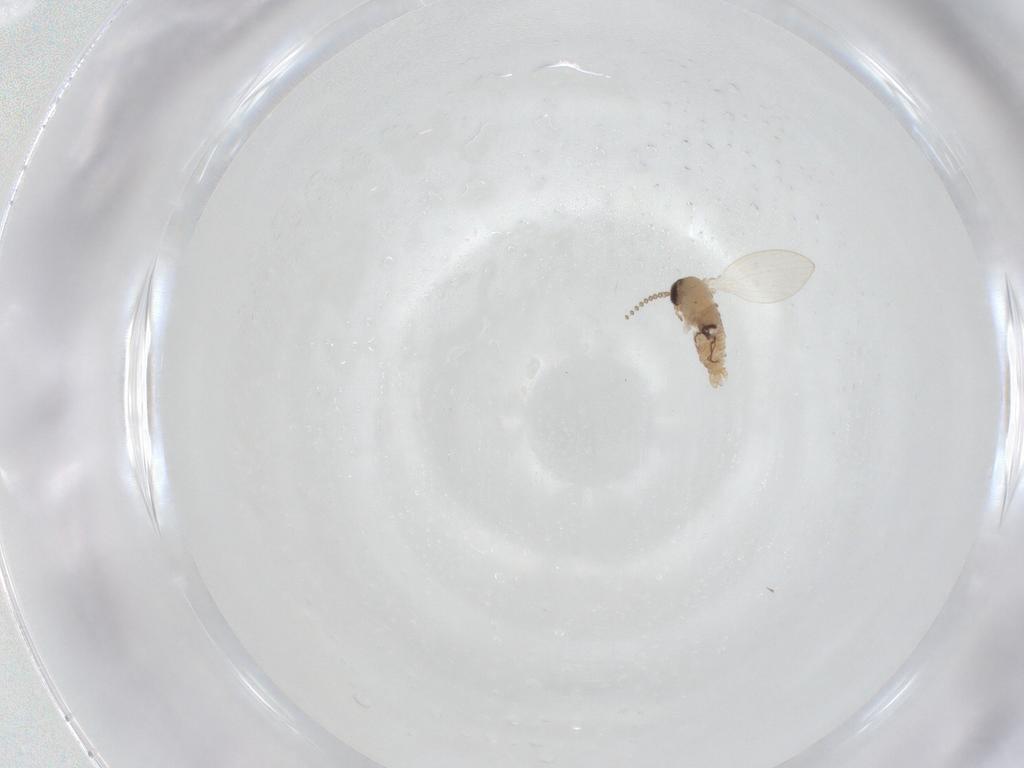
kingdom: Animalia
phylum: Arthropoda
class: Insecta
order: Diptera
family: Psychodidae
